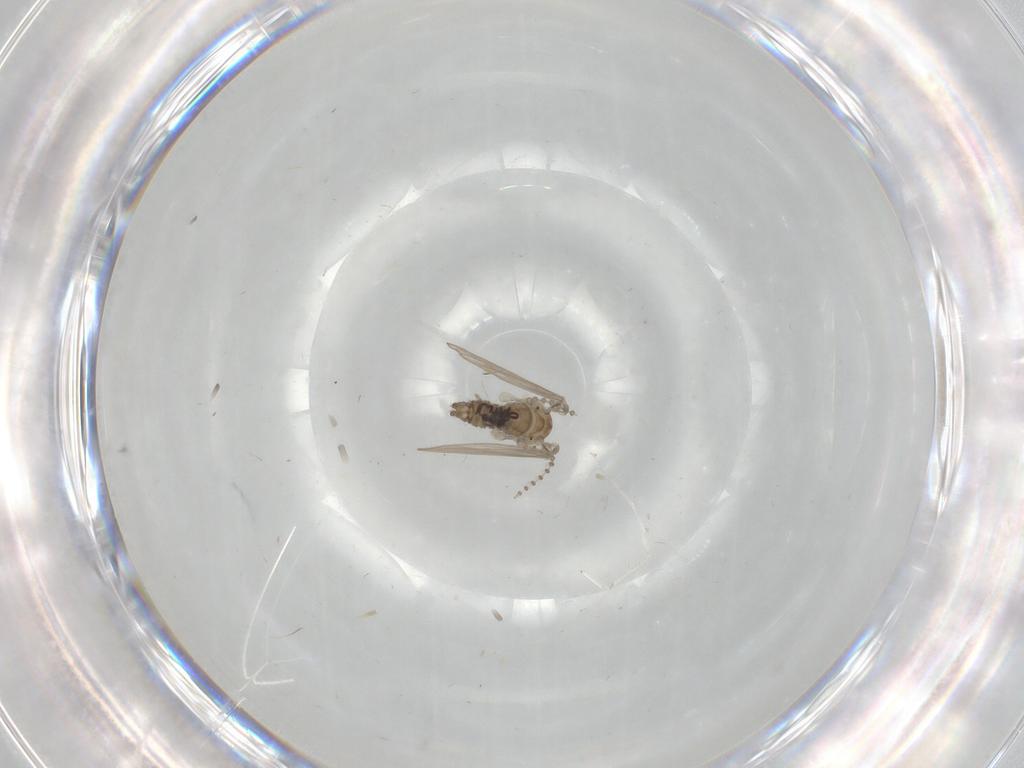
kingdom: Animalia
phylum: Arthropoda
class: Insecta
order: Diptera
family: Psychodidae
